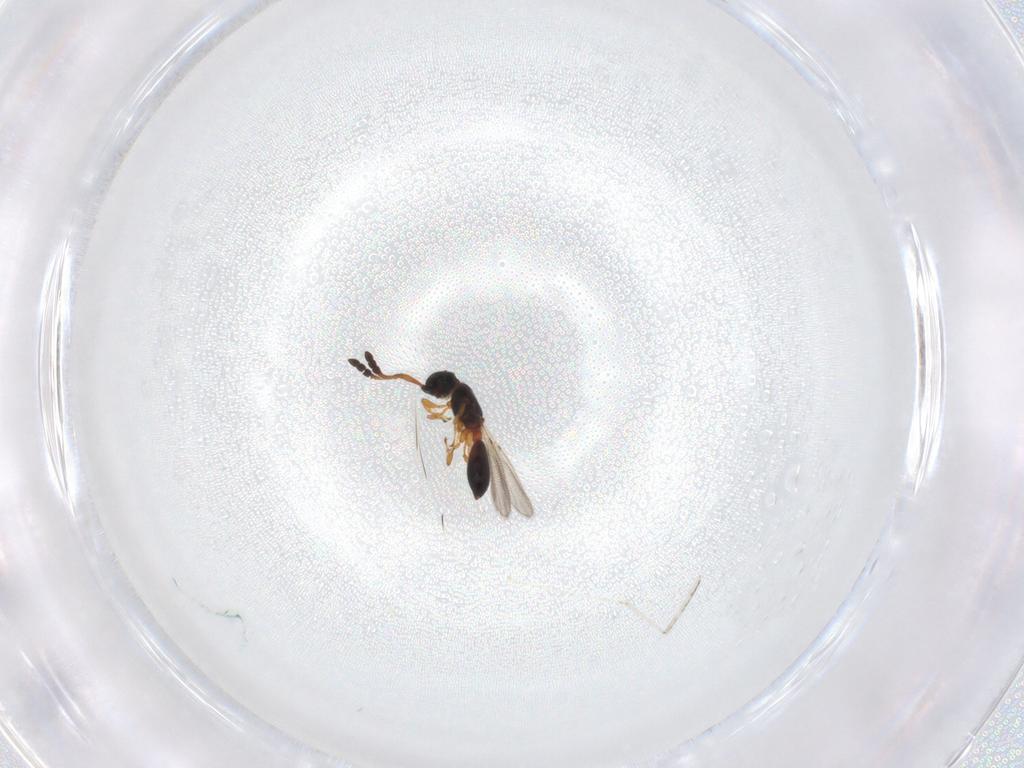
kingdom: Animalia
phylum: Arthropoda
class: Insecta
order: Hymenoptera
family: Diapriidae
